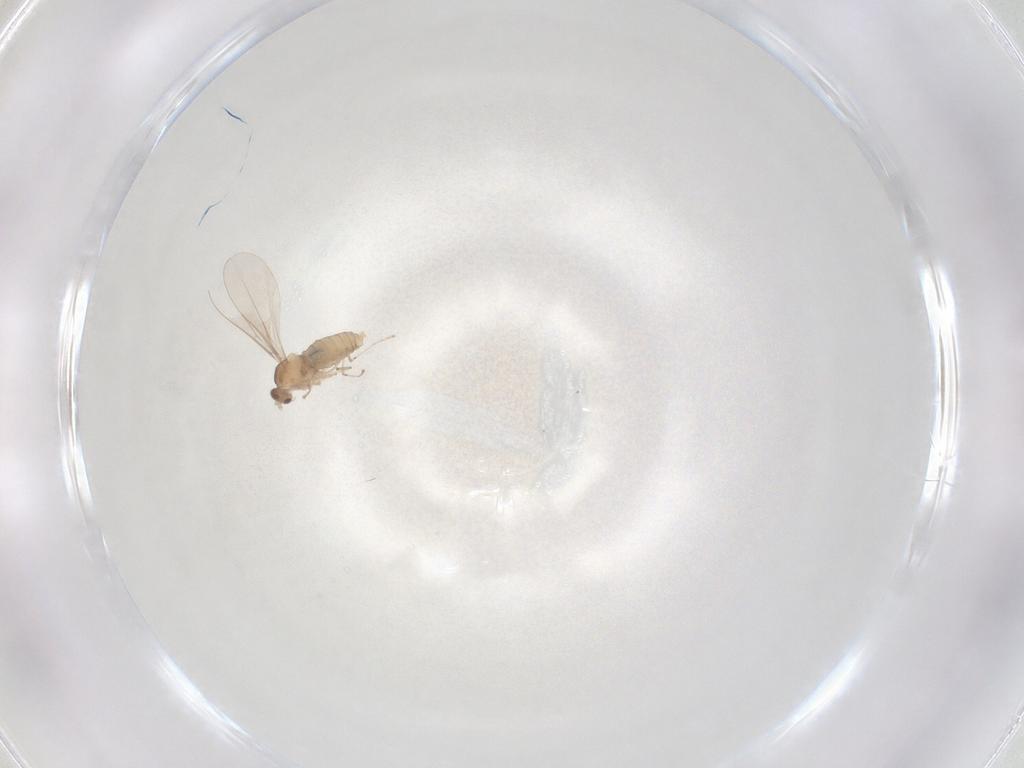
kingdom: Animalia
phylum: Arthropoda
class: Insecta
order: Diptera
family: Cecidomyiidae
